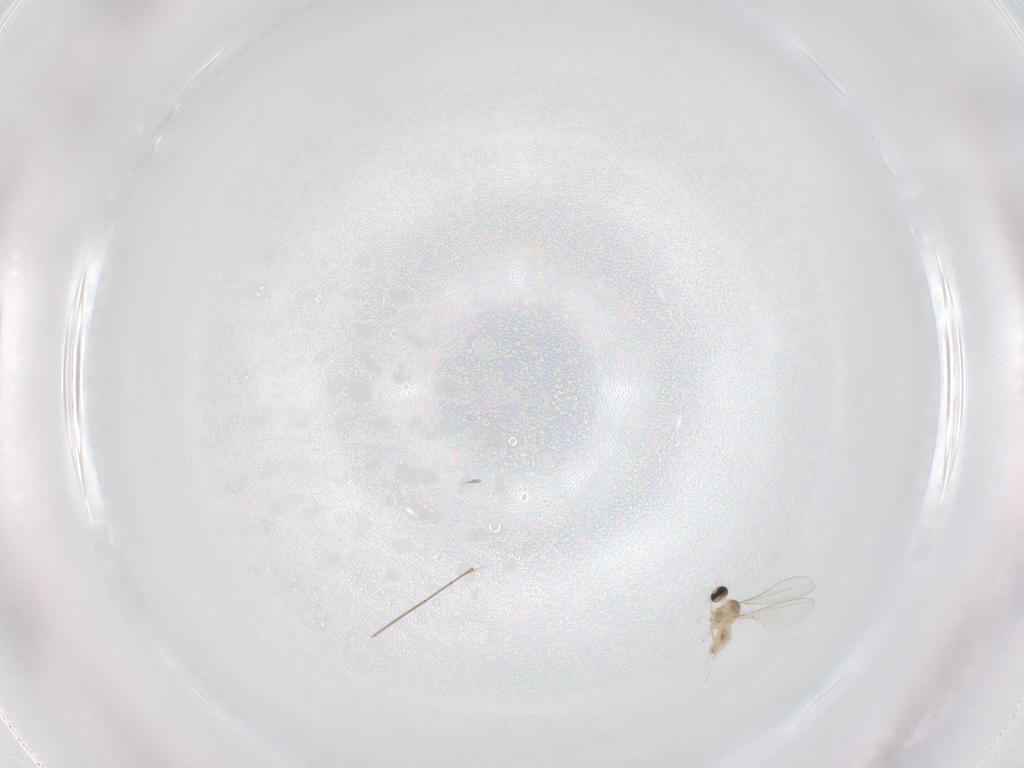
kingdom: Animalia
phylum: Arthropoda
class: Insecta
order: Diptera
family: Cecidomyiidae
